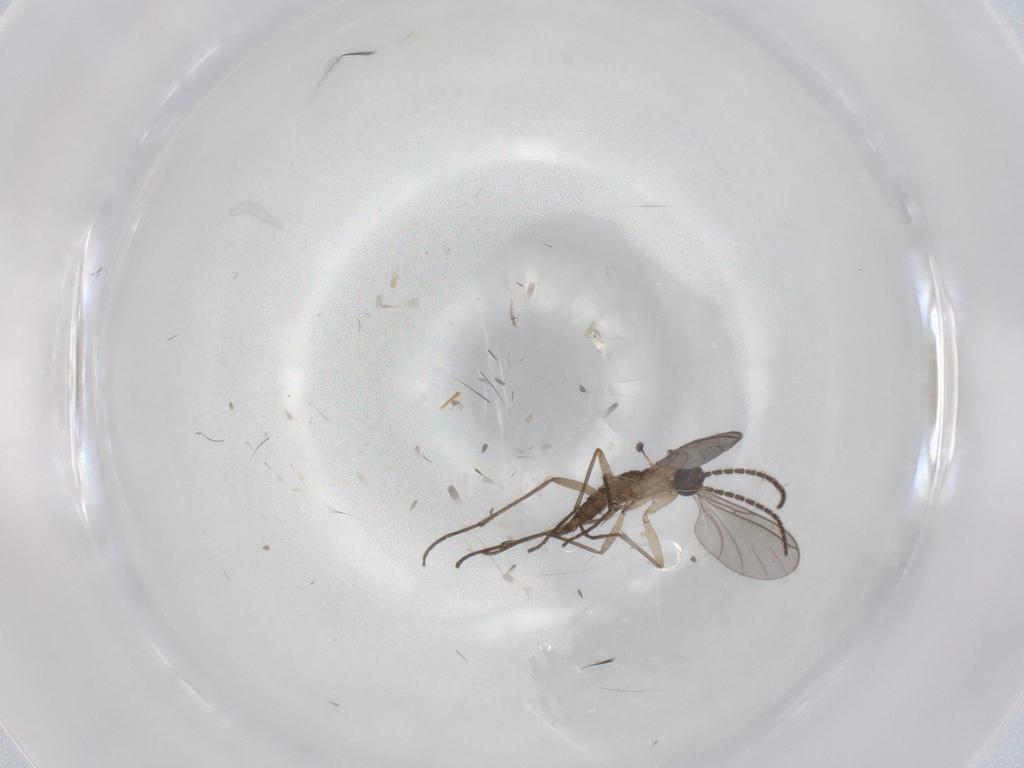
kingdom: Animalia
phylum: Arthropoda
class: Insecta
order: Diptera
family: Sciaridae
